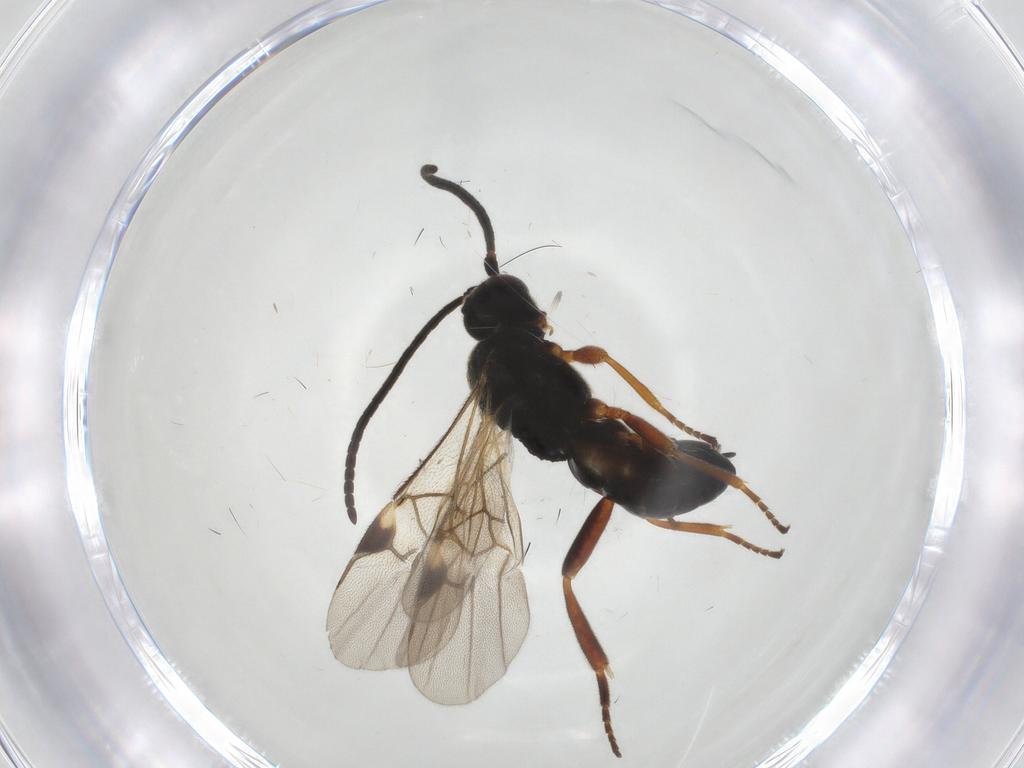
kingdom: Animalia
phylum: Arthropoda
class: Insecta
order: Hymenoptera
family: Braconidae
